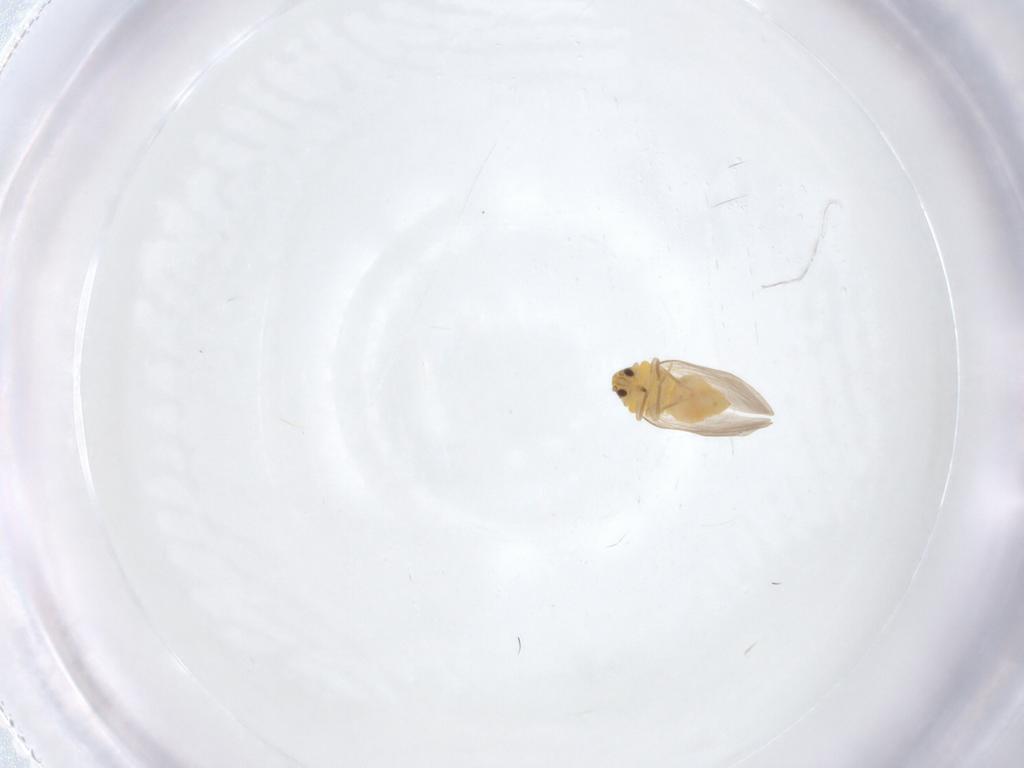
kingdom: Animalia
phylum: Arthropoda
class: Insecta
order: Hemiptera
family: Aleyrodidae
